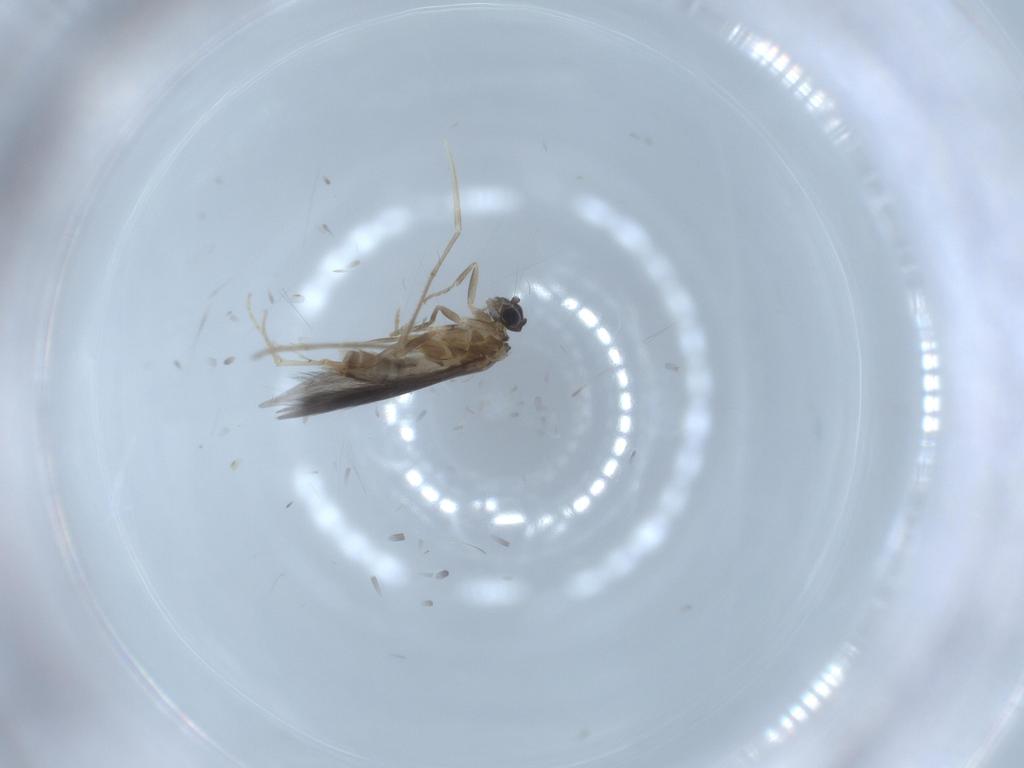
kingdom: Animalia
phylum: Arthropoda
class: Insecta
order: Trichoptera
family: Hydroptilidae
